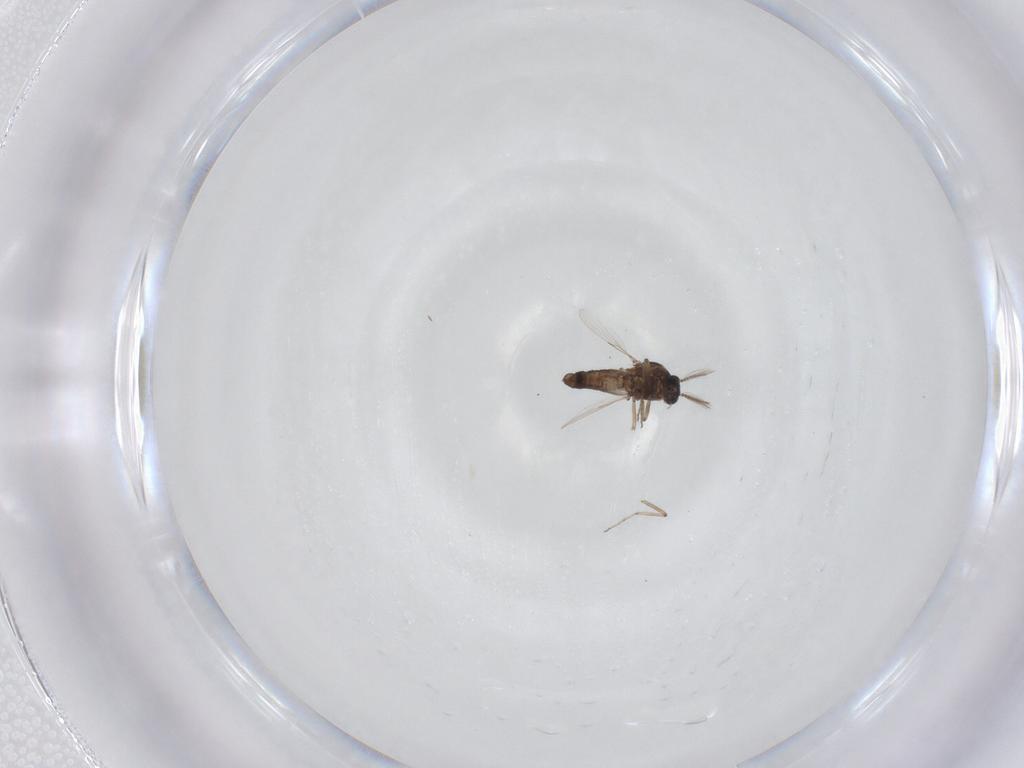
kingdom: Animalia
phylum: Arthropoda
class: Insecta
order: Diptera
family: Ceratopogonidae
